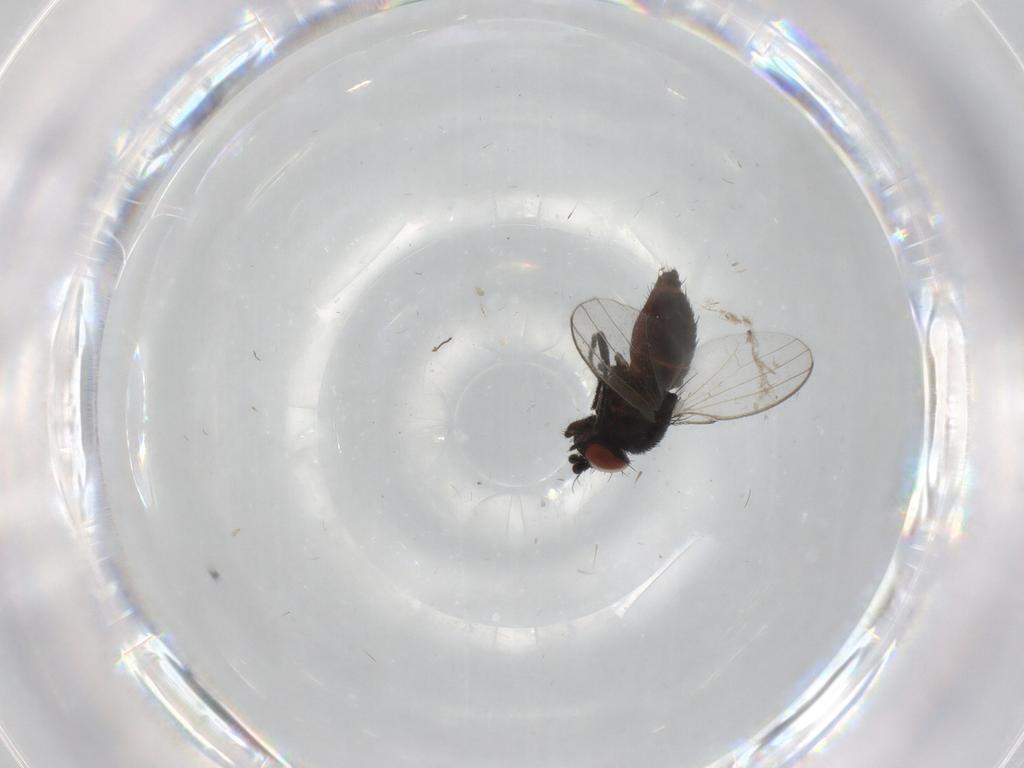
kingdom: Animalia
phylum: Arthropoda
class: Insecta
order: Diptera
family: Milichiidae
